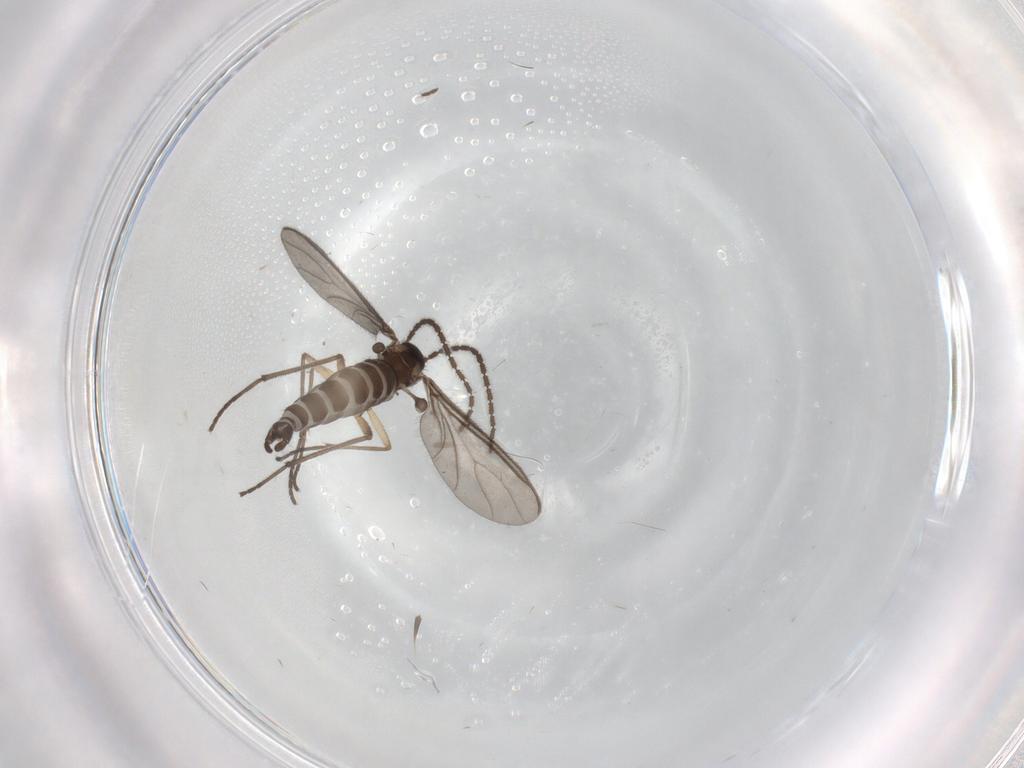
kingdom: Animalia
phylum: Arthropoda
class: Insecta
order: Diptera
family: Sciaridae
